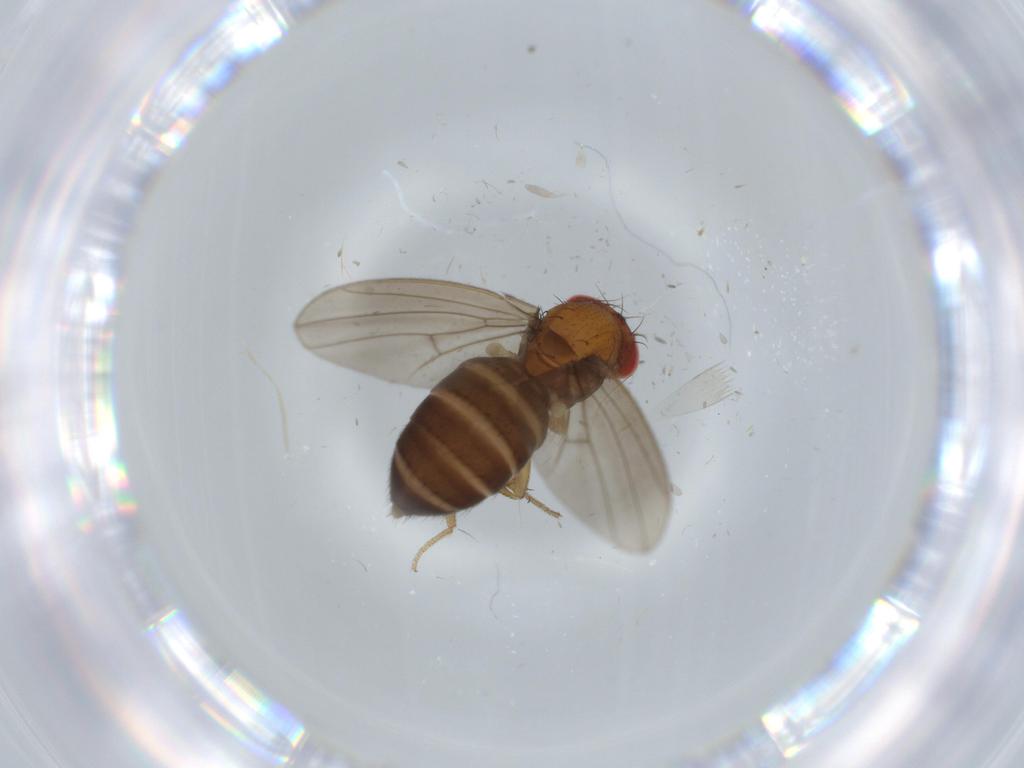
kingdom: Animalia
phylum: Arthropoda
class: Insecta
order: Diptera
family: Drosophilidae
